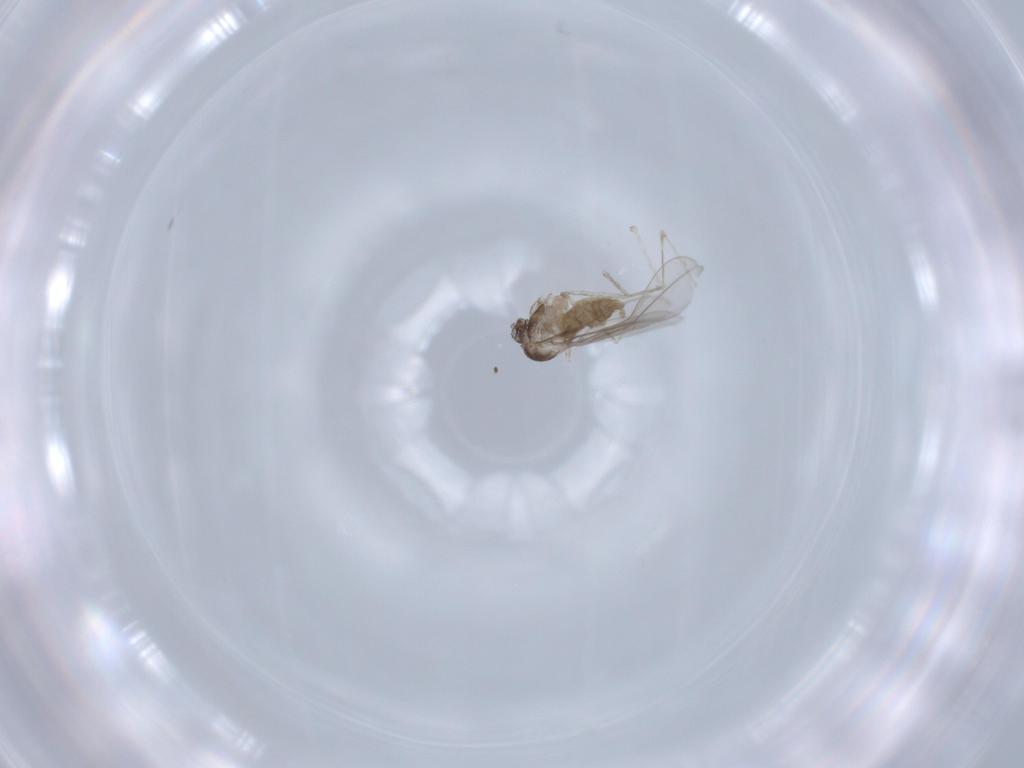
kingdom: Animalia
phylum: Arthropoda
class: Insecta
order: Diptera
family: Cecidomyiidae
